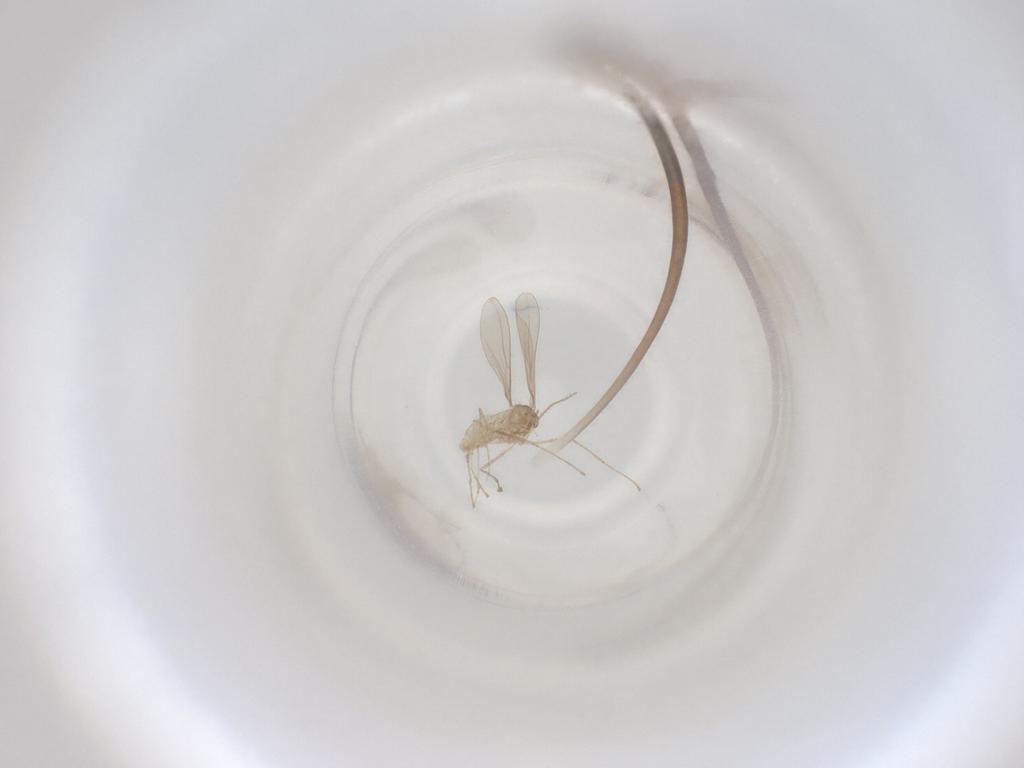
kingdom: Animalia
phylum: Arthropoda
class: Insecta
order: Diptera
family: Cecidomyiidae
